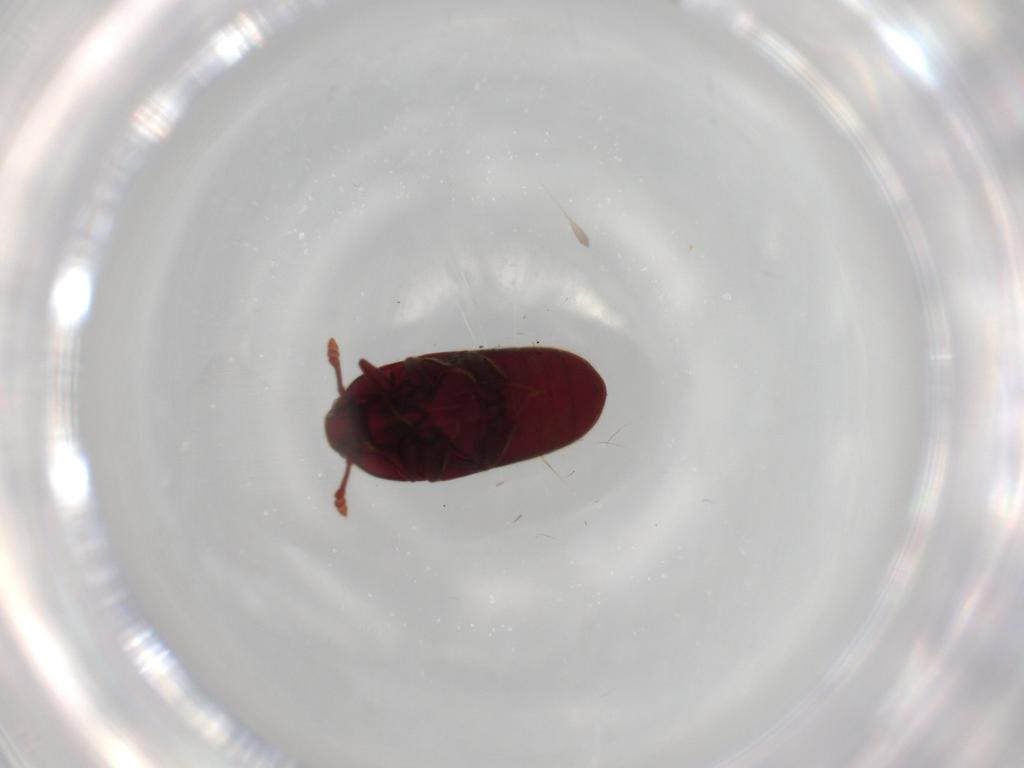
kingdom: Animalia
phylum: Arthropoda
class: Insecta
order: Coleoptera
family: Throscidae
